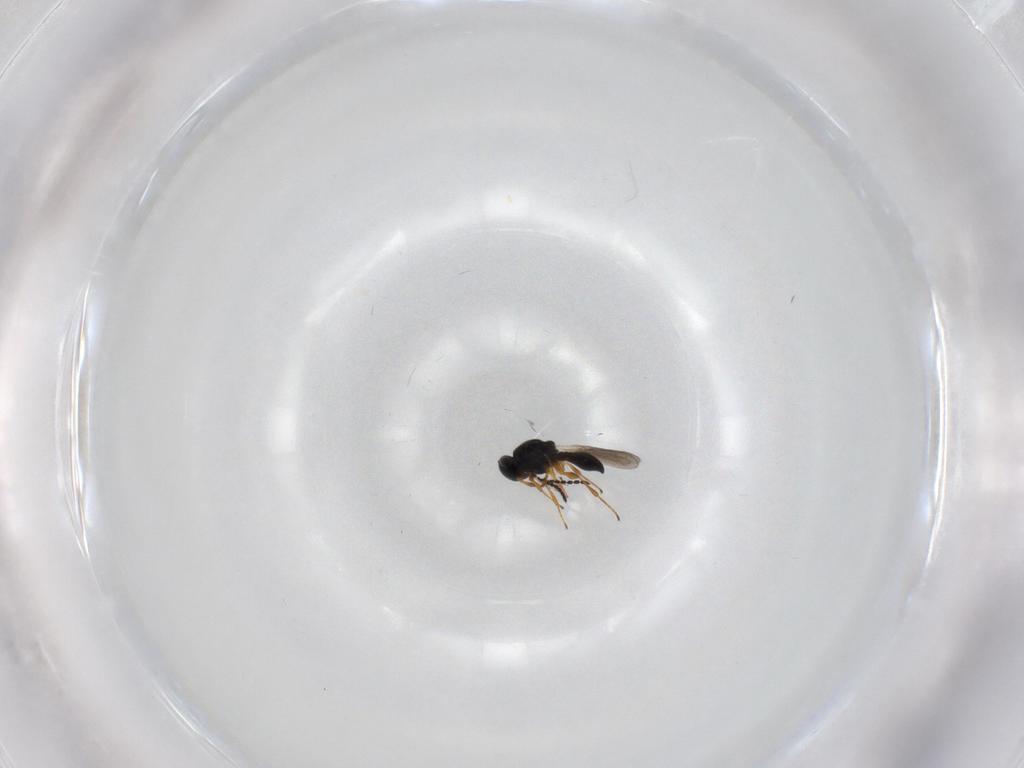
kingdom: Animalia
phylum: Arthropoda
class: Insecta
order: Hymenoptera
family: Platygastridae
